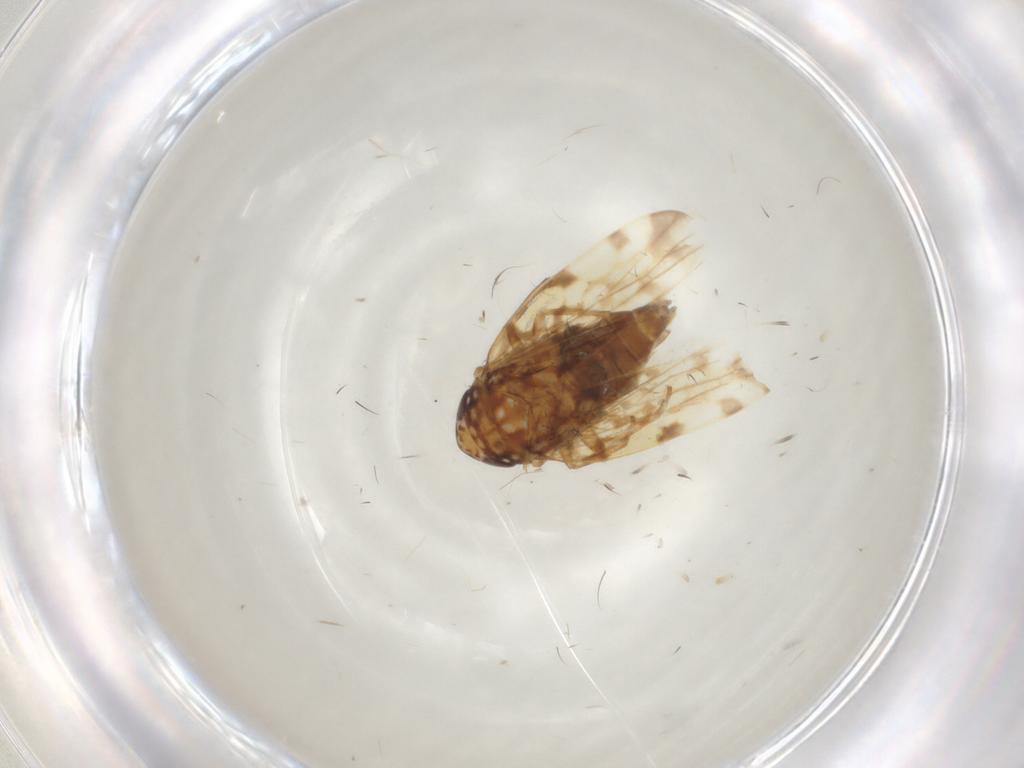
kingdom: Animalia
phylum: Arthropoda
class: Insecta
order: Hemiptera
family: Cicadellidae
